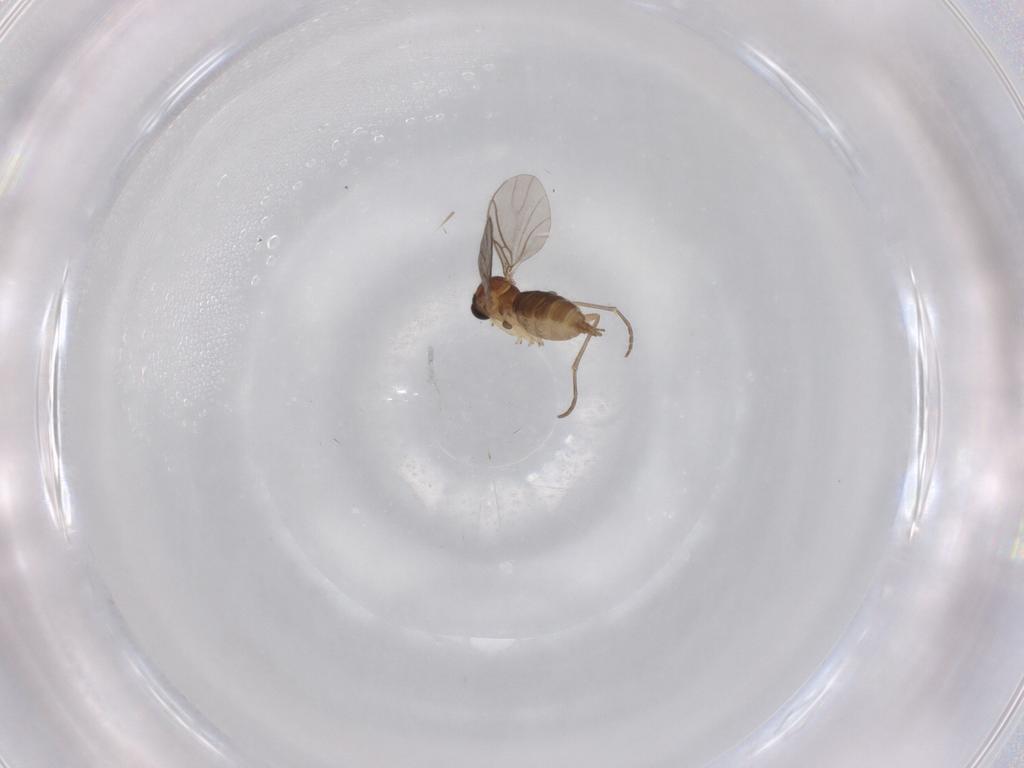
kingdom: Animalia
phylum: Arthropoda
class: Insecta
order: Diptera
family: Sciaridae
